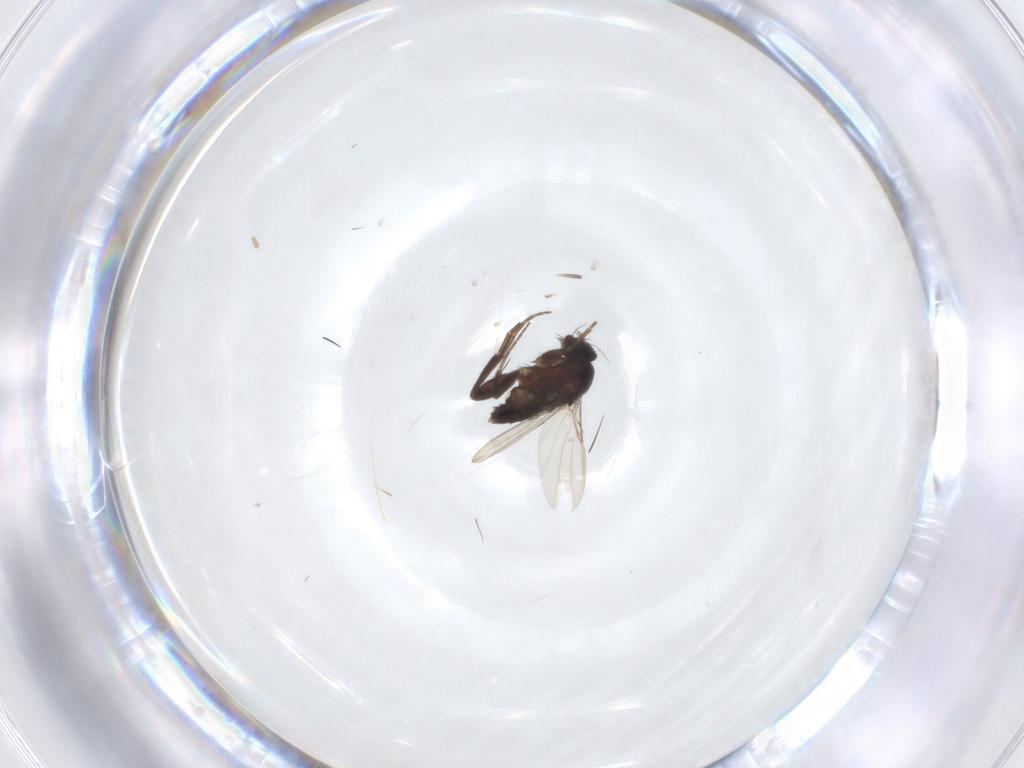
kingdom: Animalia
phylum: Arthropoda
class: Insecta
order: Diptera
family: Phoridae
